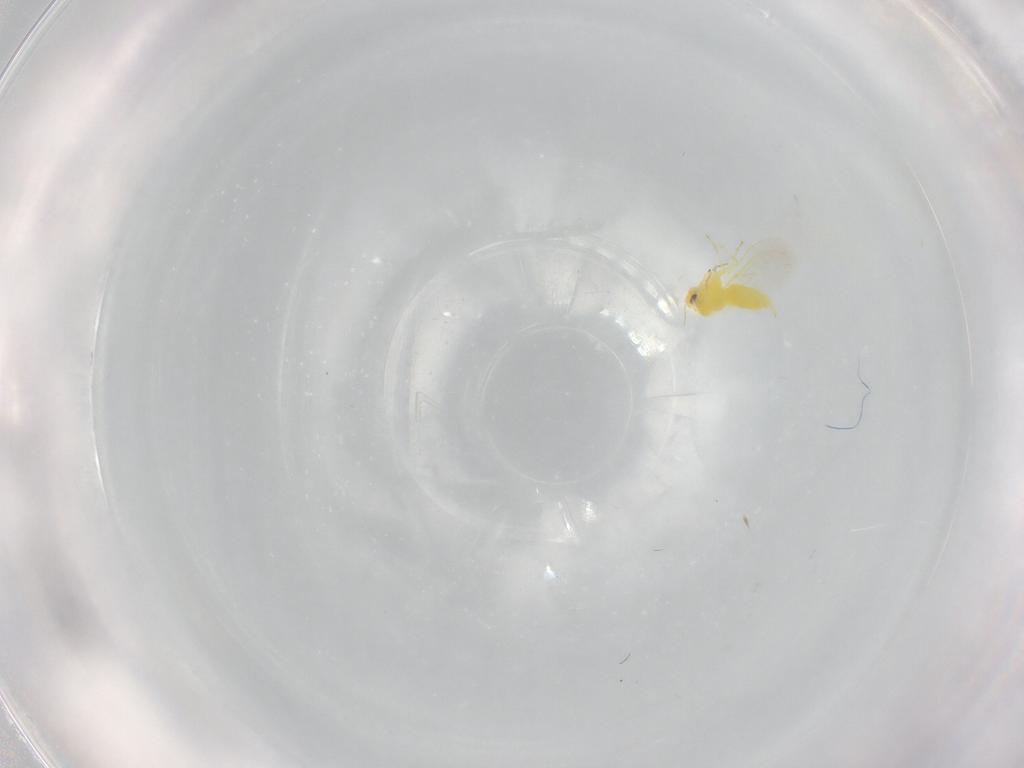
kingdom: Animalia
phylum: Arthropoda
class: Insecta
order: Hemiptera
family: Aleyrodidae
